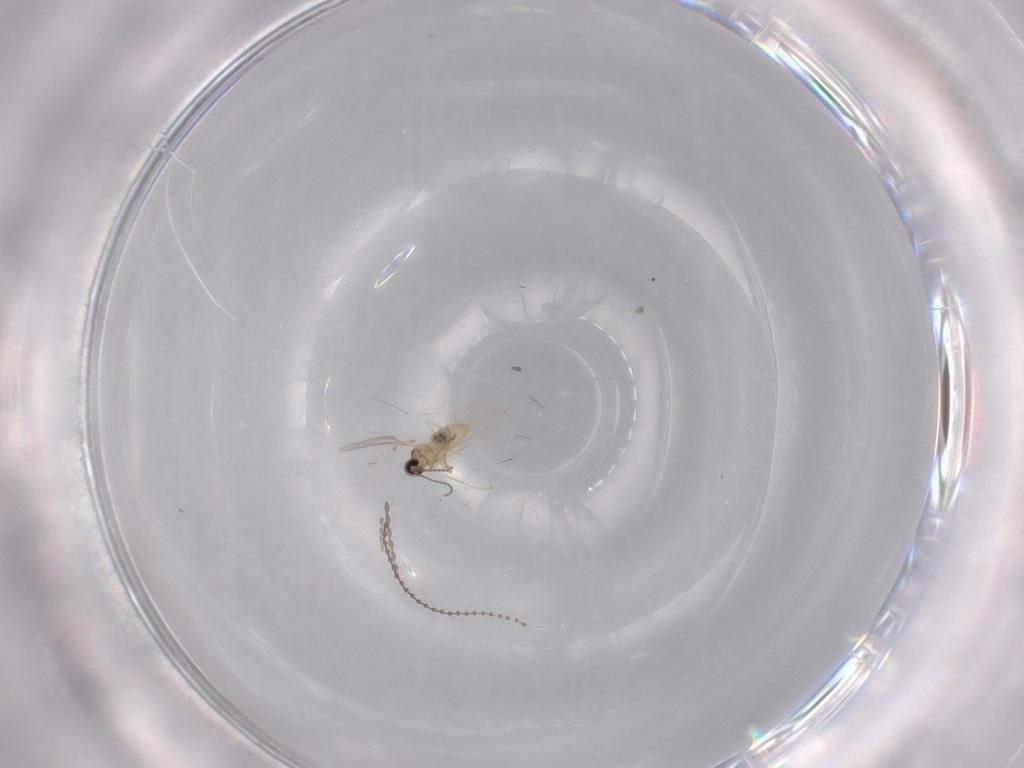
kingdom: Animalia
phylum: Arthropoda
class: Insecta
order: Diptera
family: Cecidomyiidae
